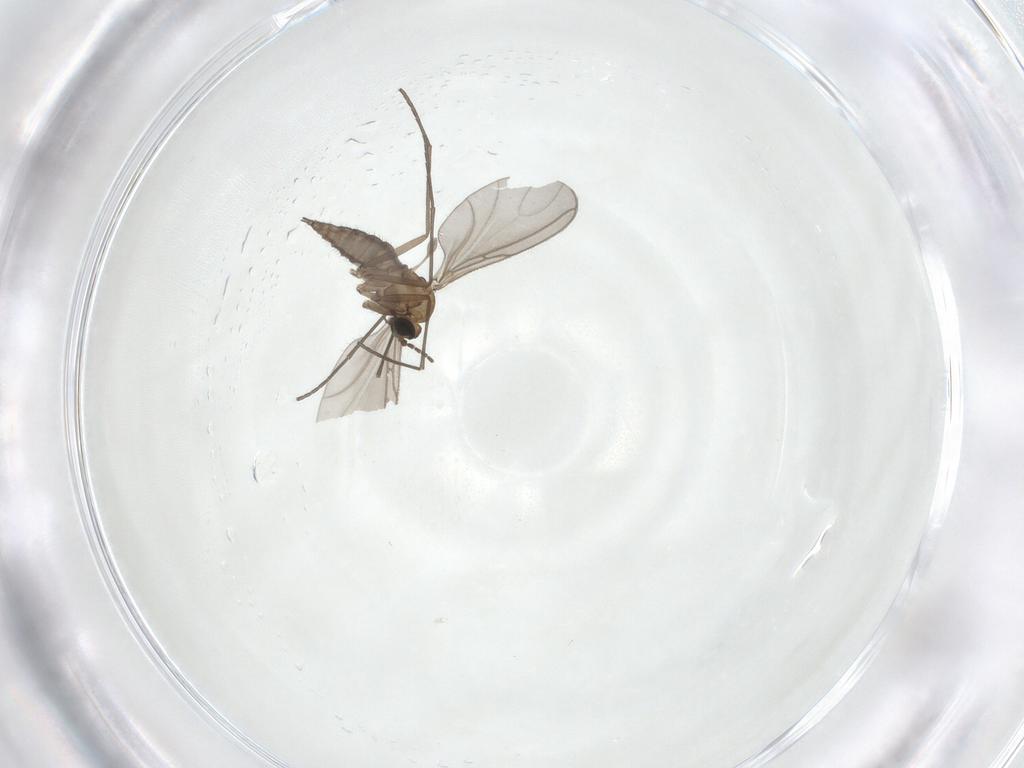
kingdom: Animalia
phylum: Arthropoda
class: Insecta
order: Diptera
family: Sciaridae
